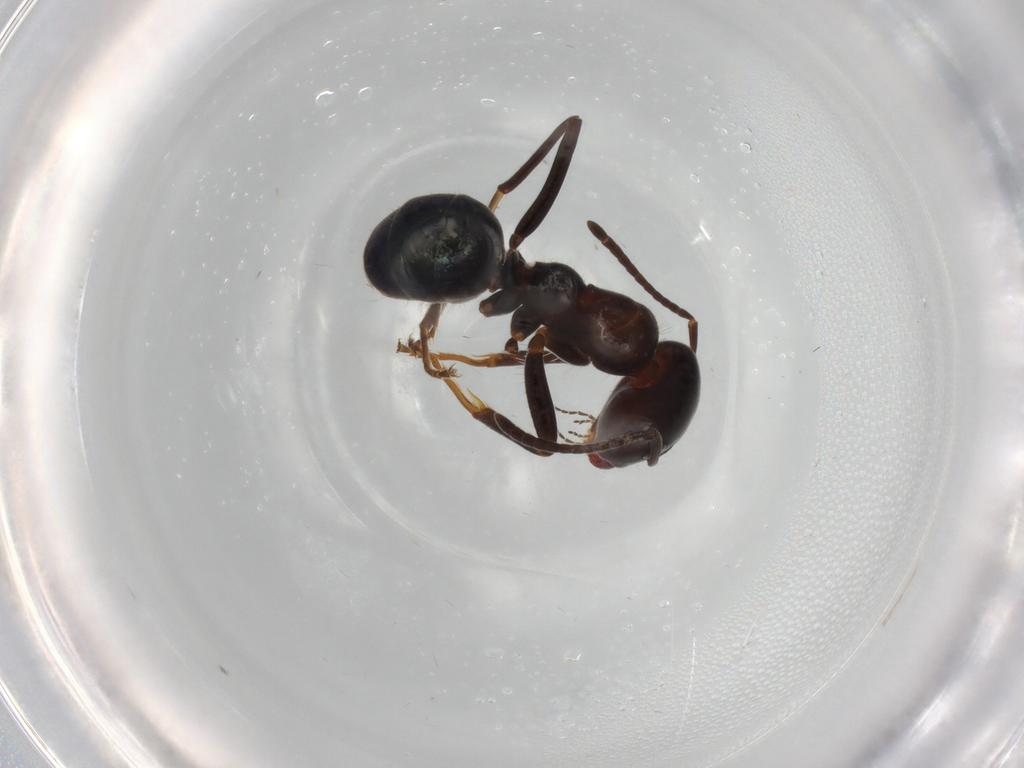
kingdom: Animalia
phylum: Arthropoda
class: Insecta
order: Hymenoptera
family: Formicidae
